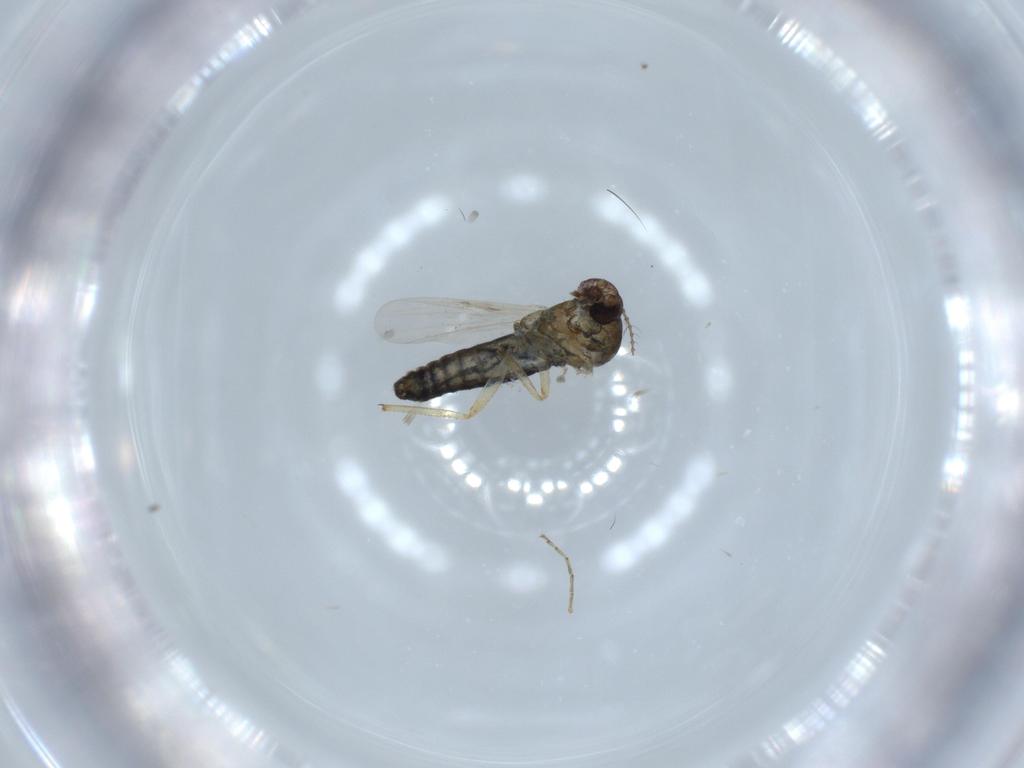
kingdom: Animalia
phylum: Arthropoda
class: Insecta
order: Diptera
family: Ceratopogonidae
